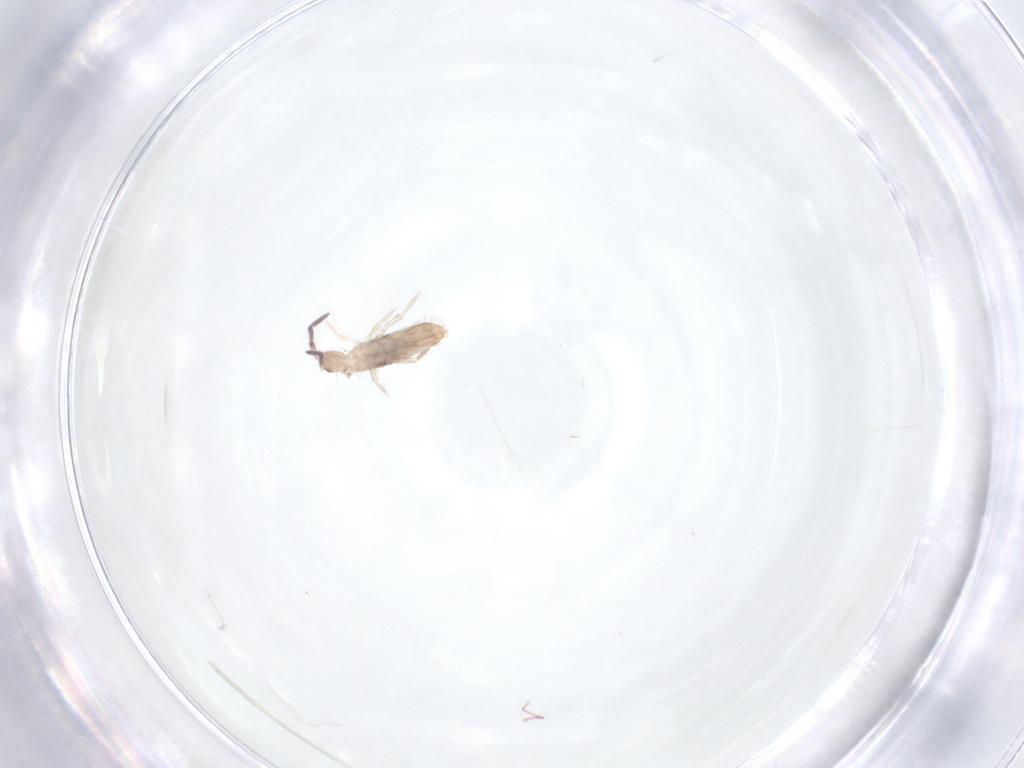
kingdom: Animalia
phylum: Arthropoda
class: Collembola
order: Entomobryomorpha
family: Entomobryidae
